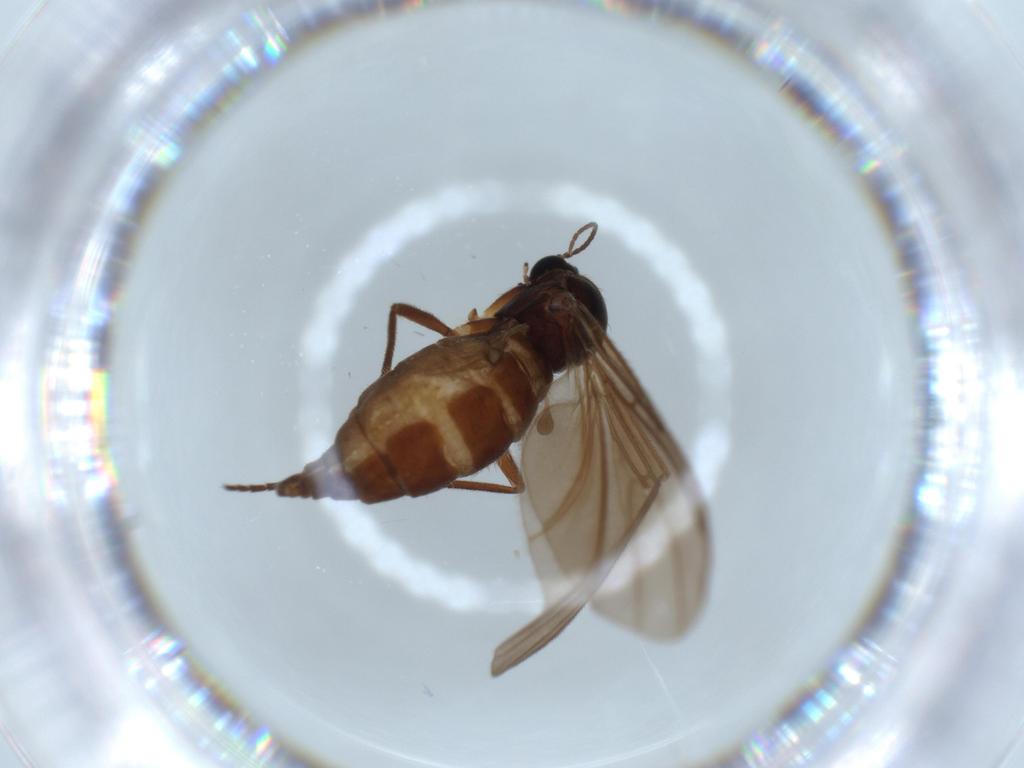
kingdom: Animalia
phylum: Arthropoda
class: Insecta
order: Diptera
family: Sciaridae
